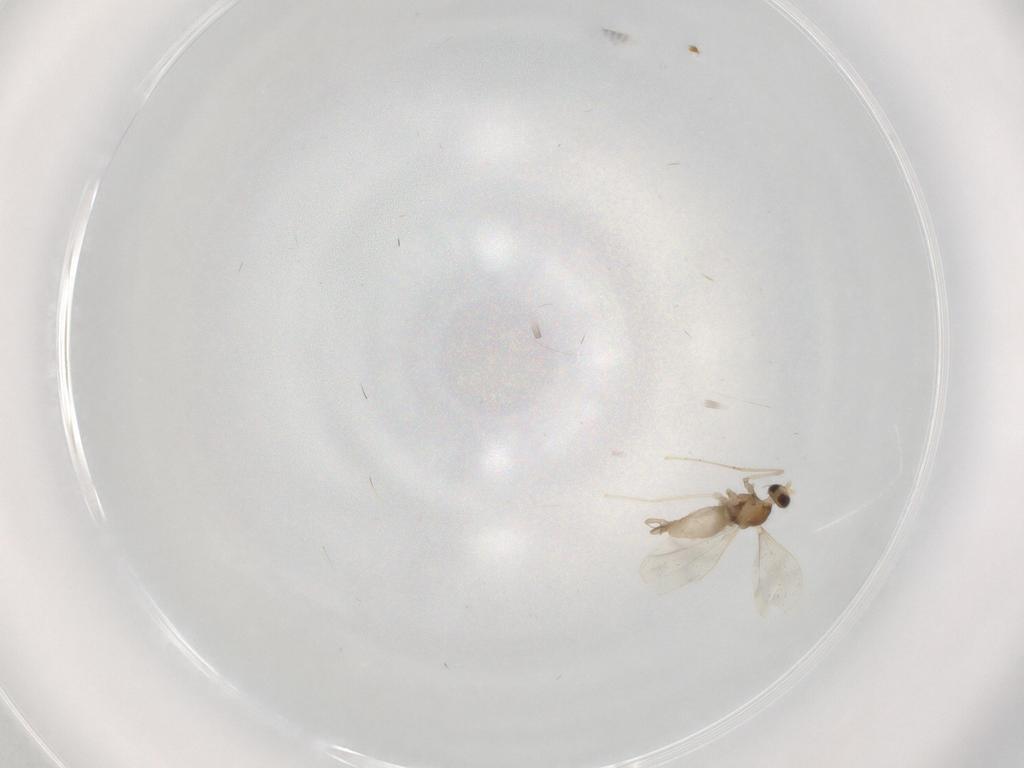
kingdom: Animalia
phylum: Arthropoda
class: Insecta
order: Diptera
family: Cecidomyiidae
